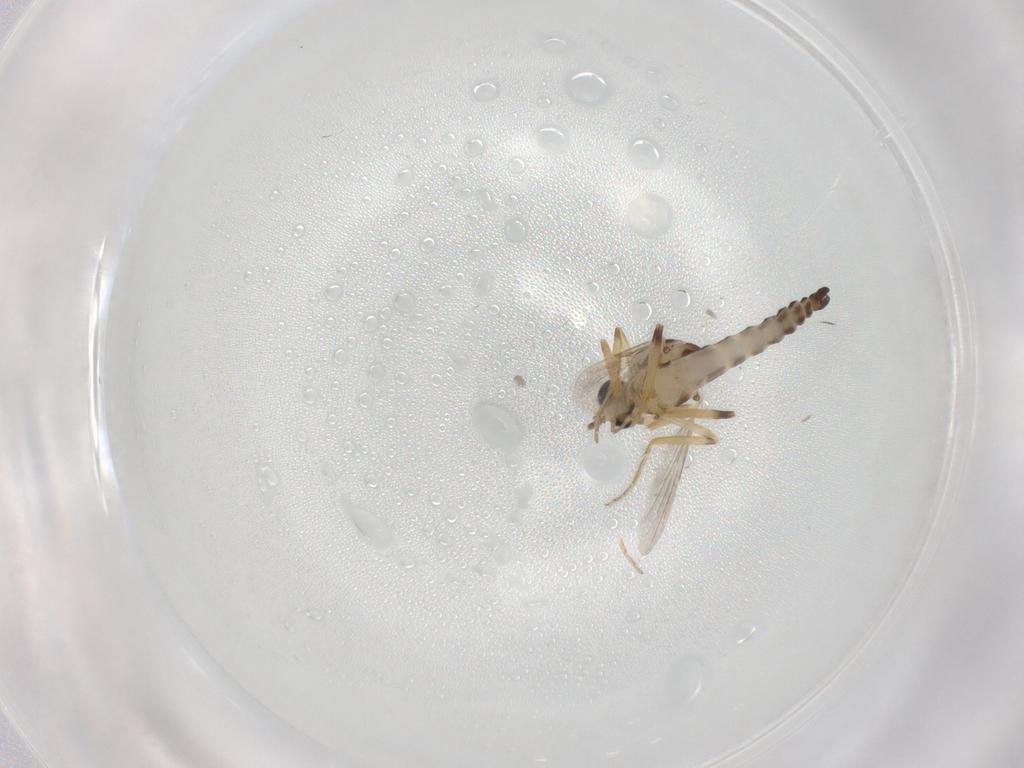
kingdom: Animalia
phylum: Arthropoda
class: Insecta
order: Diptera
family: Ceratopogonidae
